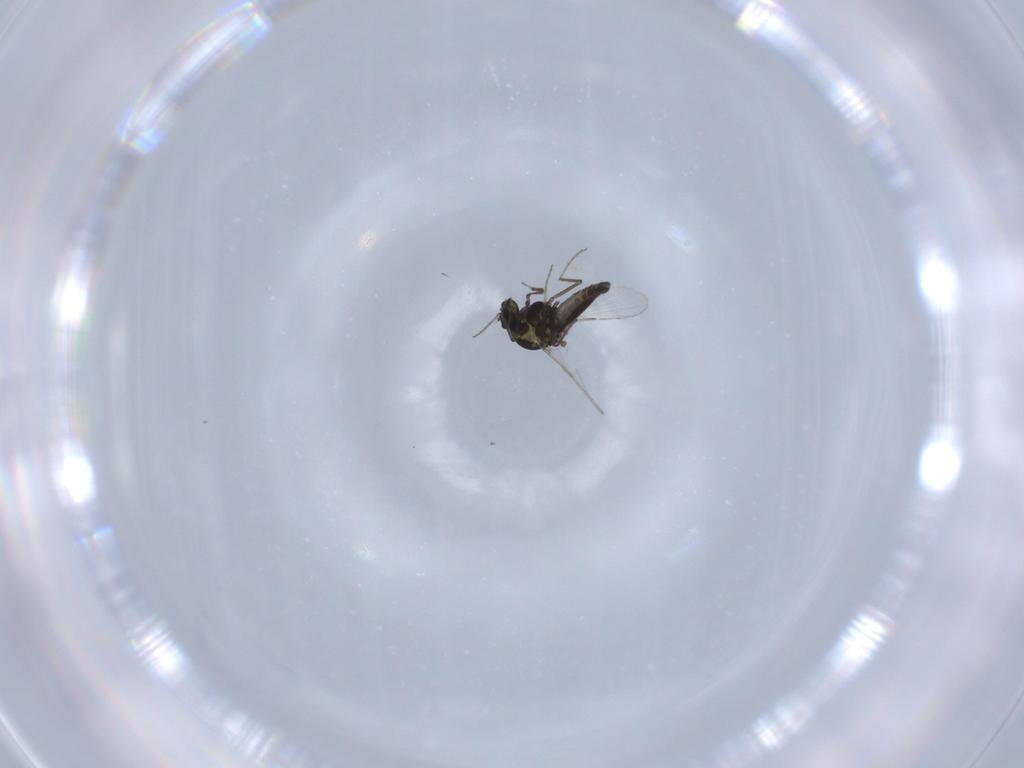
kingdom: Animalia
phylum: Arthropoda
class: Insecta
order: Diptera
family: Ceratopogonidae
